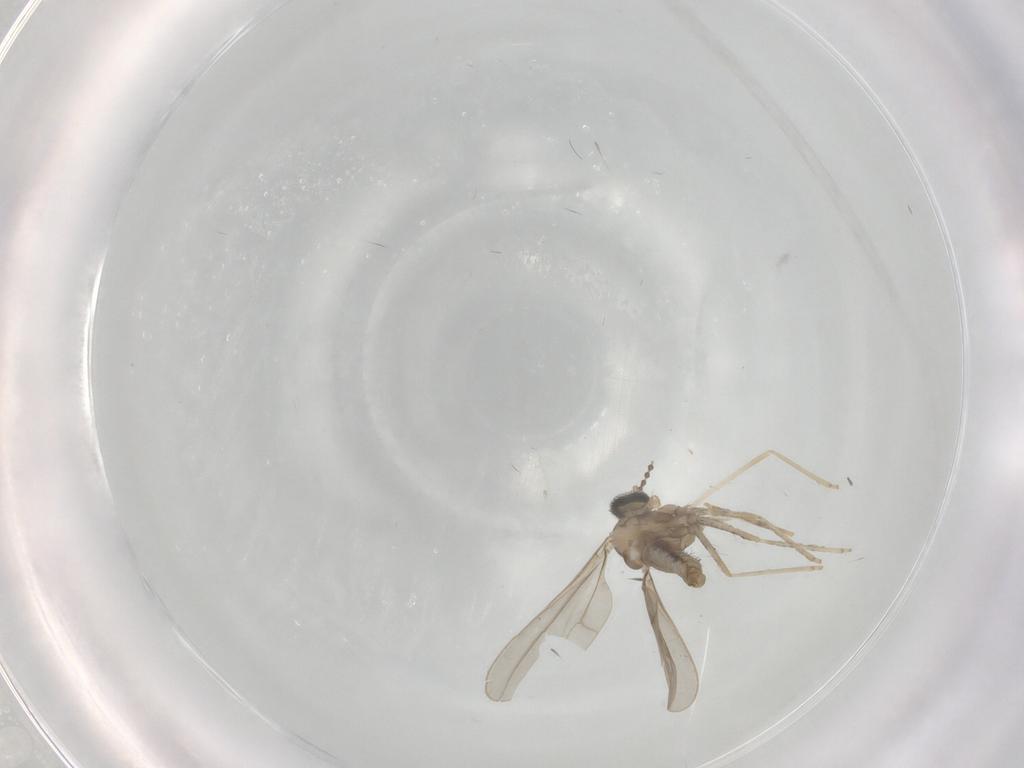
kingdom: Animalia
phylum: Arthropoda
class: Insecta
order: Diptera
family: Cecidomyiidae
